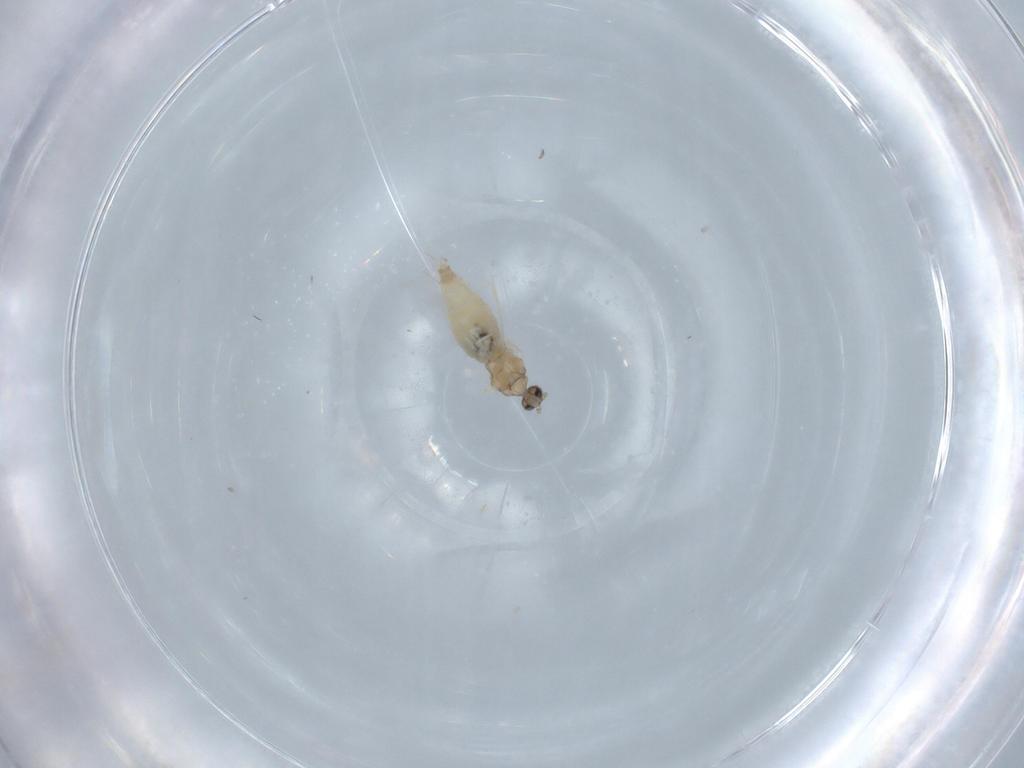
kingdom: Animalia
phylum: Arthropoda
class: Insecta
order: Diptera
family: Cecidomyiidae
